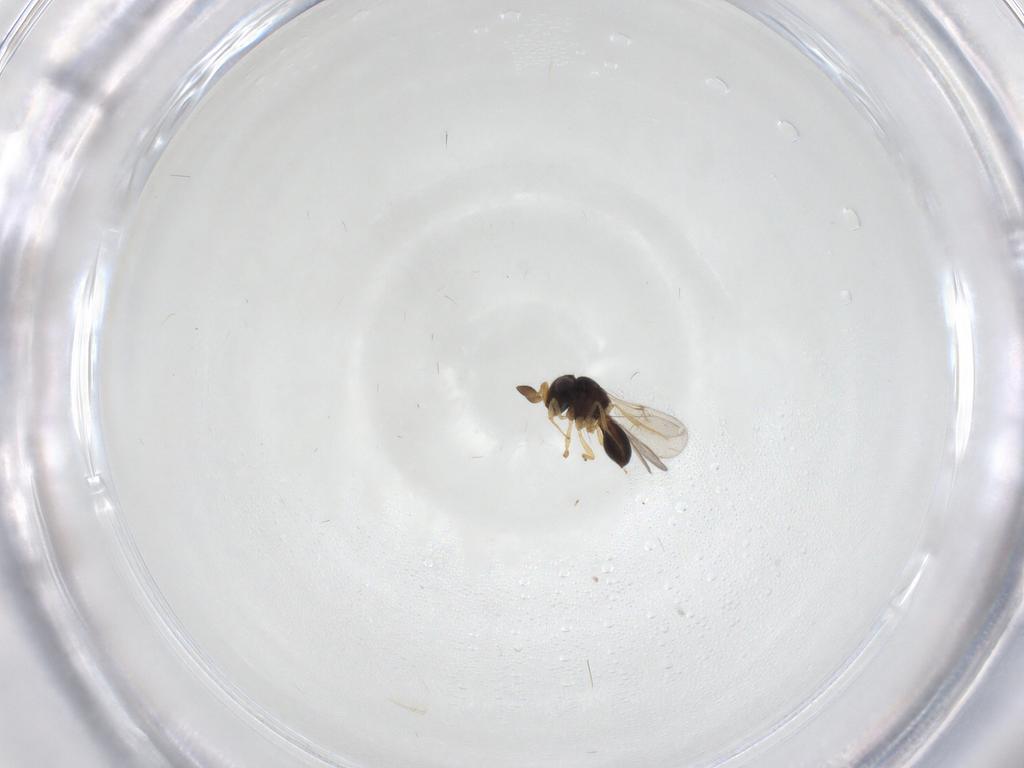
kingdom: Animalia
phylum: Arthropoda
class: Insecta
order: Hymenoptera
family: Scelionidae
